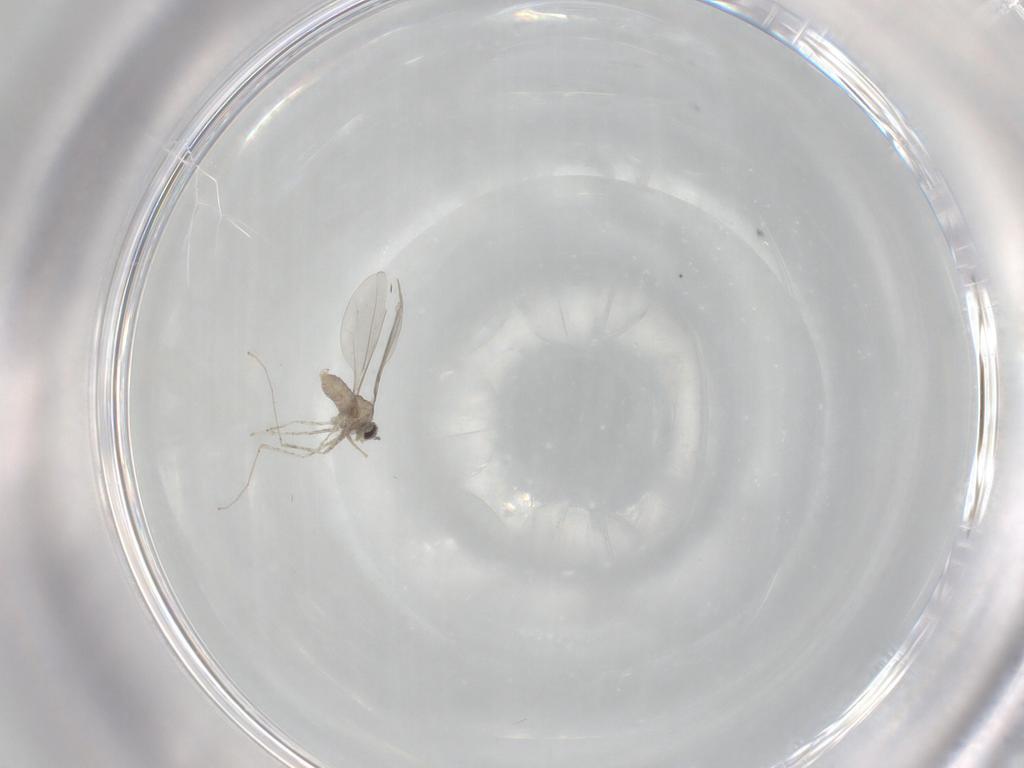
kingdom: Animalia
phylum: Arthropoda
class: Insecta
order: Diptera
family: Cecidomyiidae
